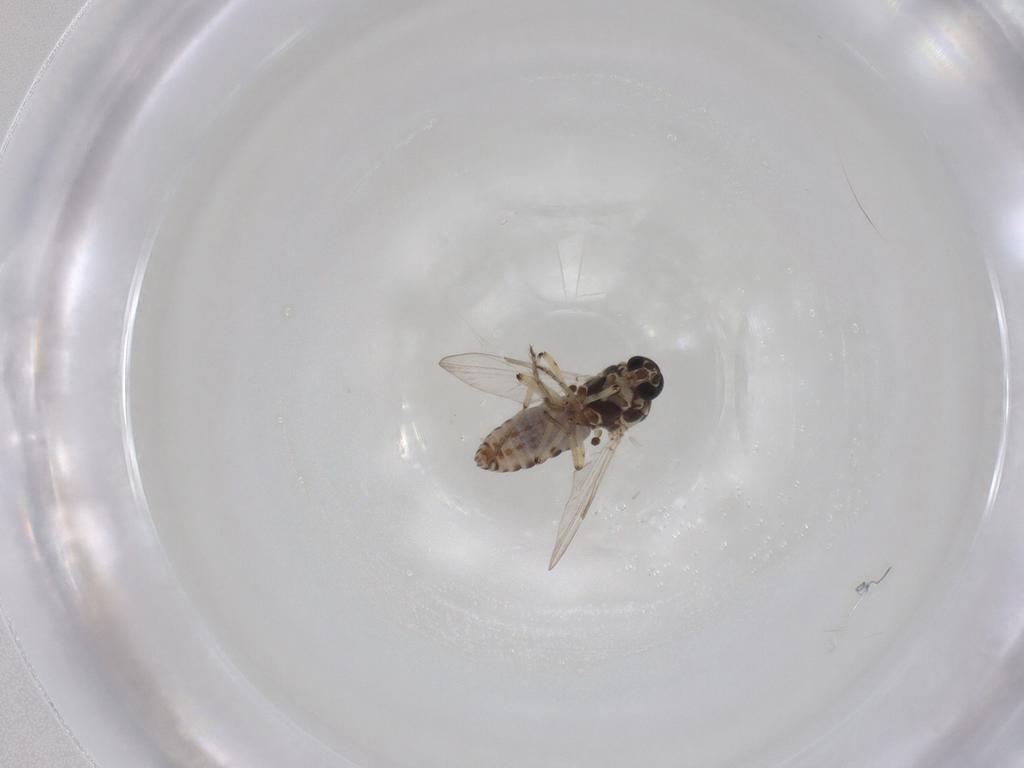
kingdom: Animalia
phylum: Arthropoda
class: Insecta
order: Diptera
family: Ceratopogonidae
